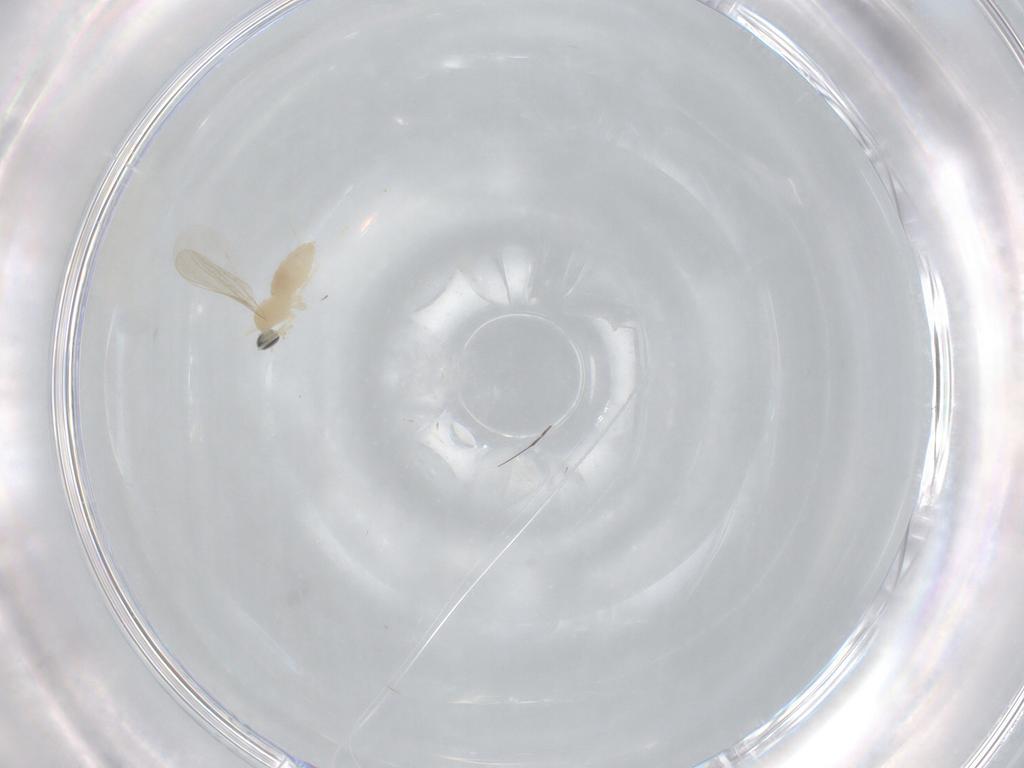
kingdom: Animalia
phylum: Arthropoda
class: Insecta
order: Diptera
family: Cecidomyiidae
